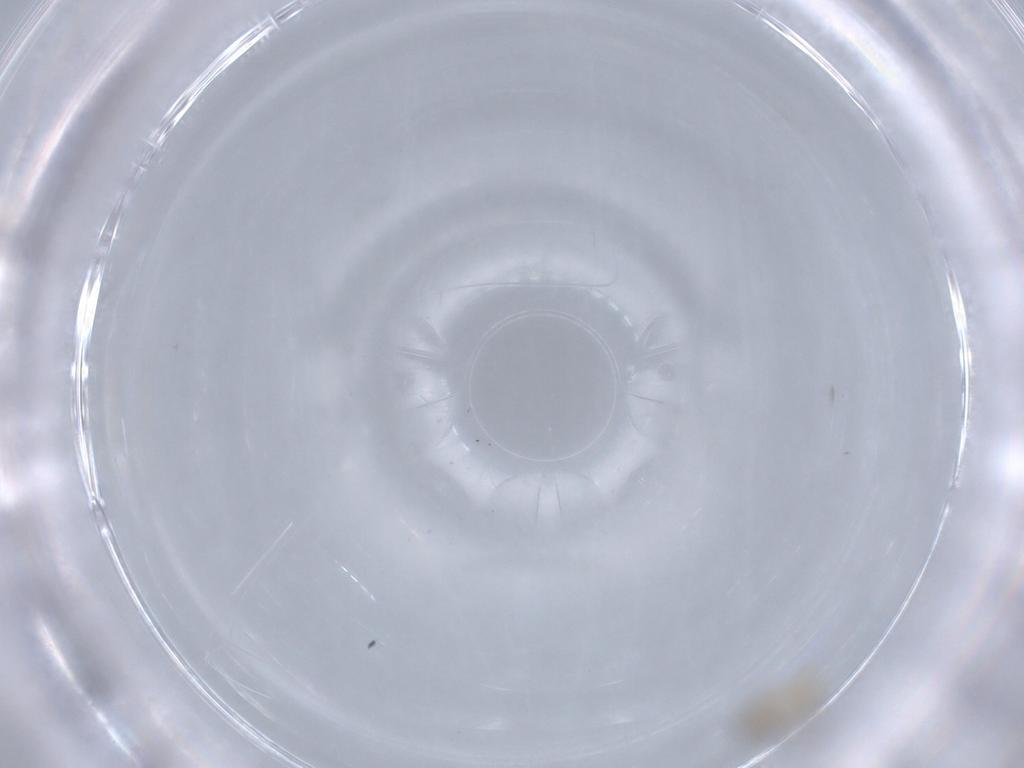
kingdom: Animalia
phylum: Arthropoda
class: Insecta
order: Diptera
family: Cecidomyiidae
